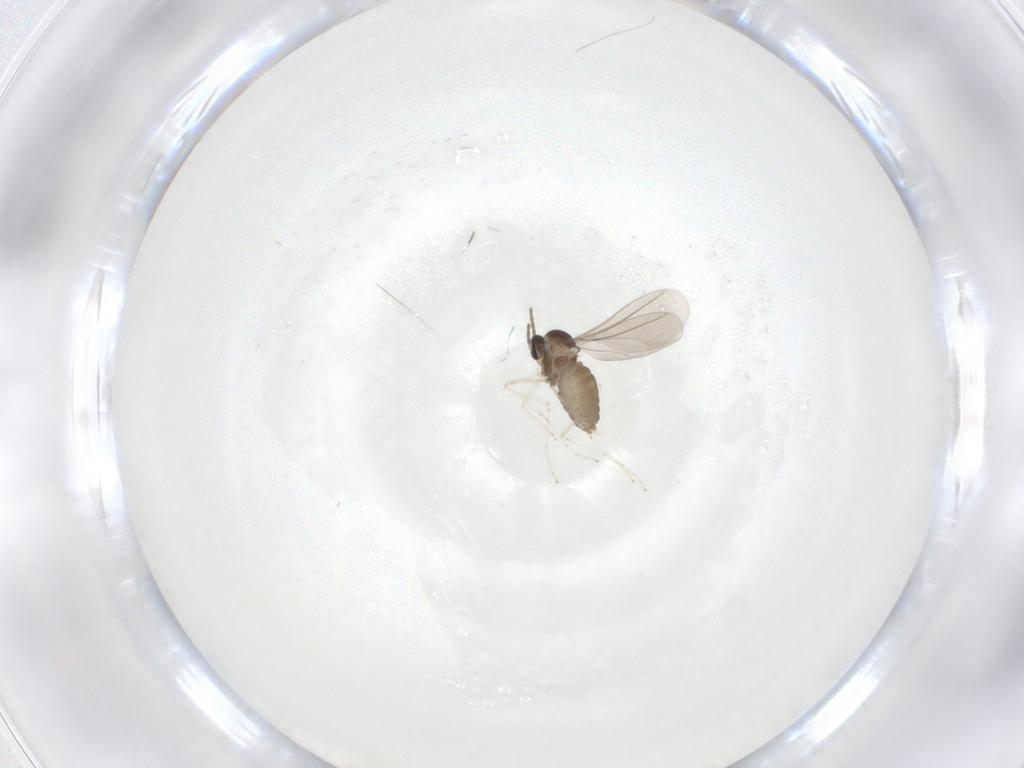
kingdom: Animalia
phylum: Arthropoda
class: Insecta
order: Diptera
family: Cecidomyiidae
